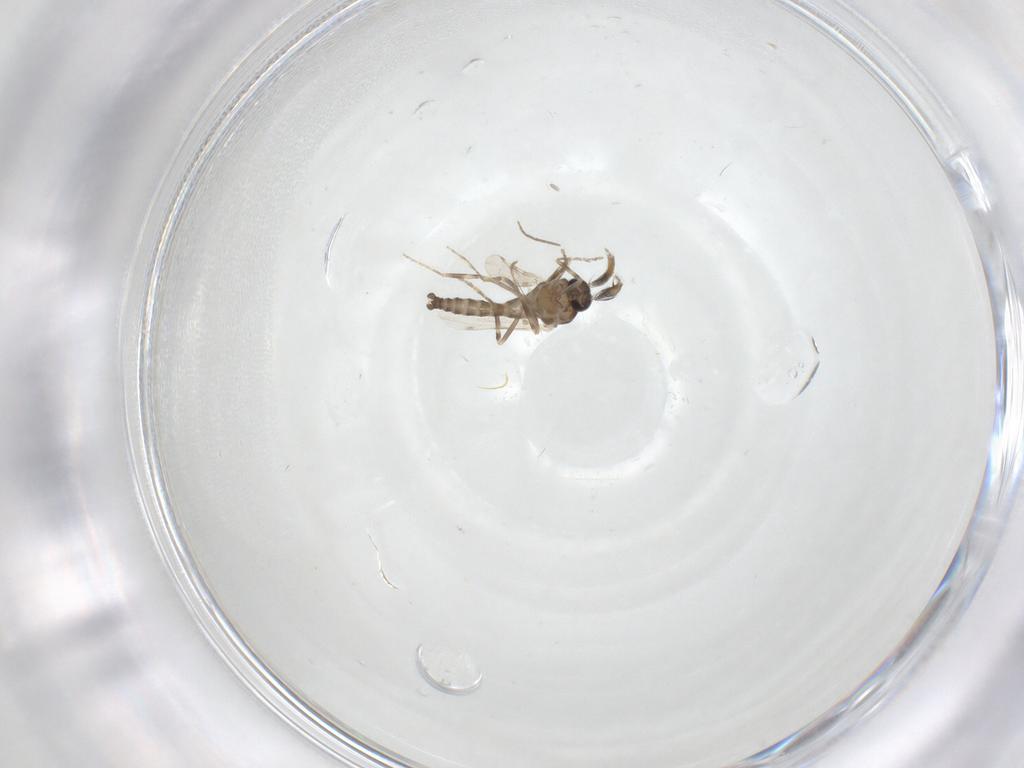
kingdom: Animalia
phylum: Arthropoda
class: Insecta
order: Diptera
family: Ceratopogonidae
